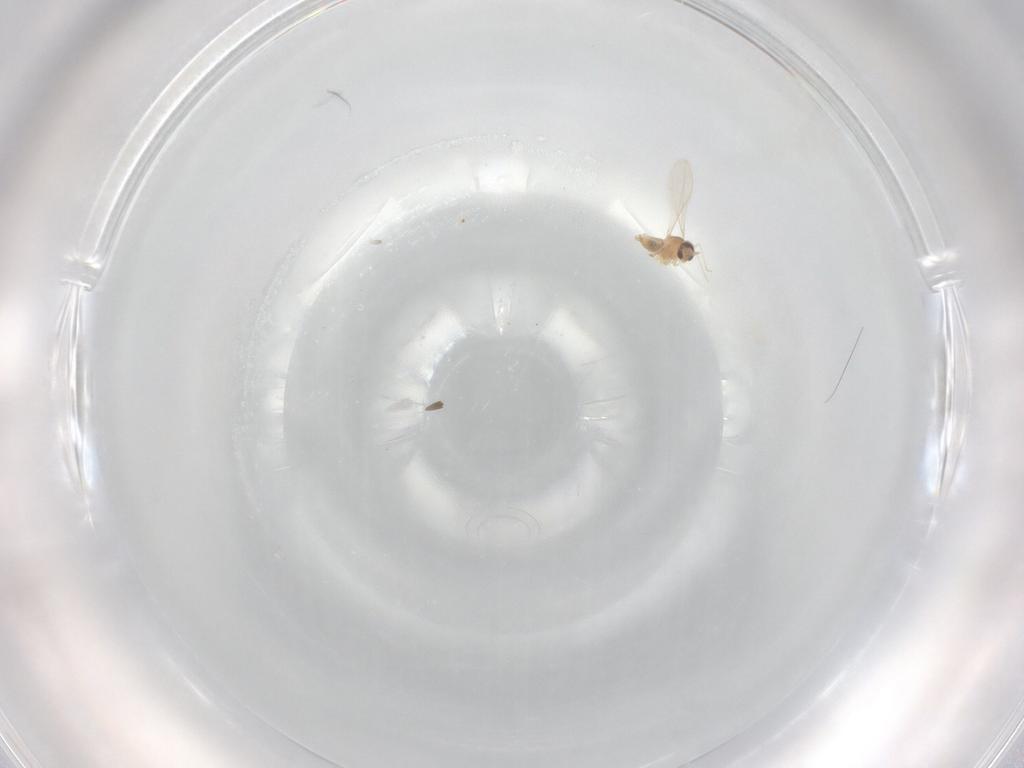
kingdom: Animalia
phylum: Arthropoda
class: Insecta
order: Diptera
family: Cecidomyiidae
